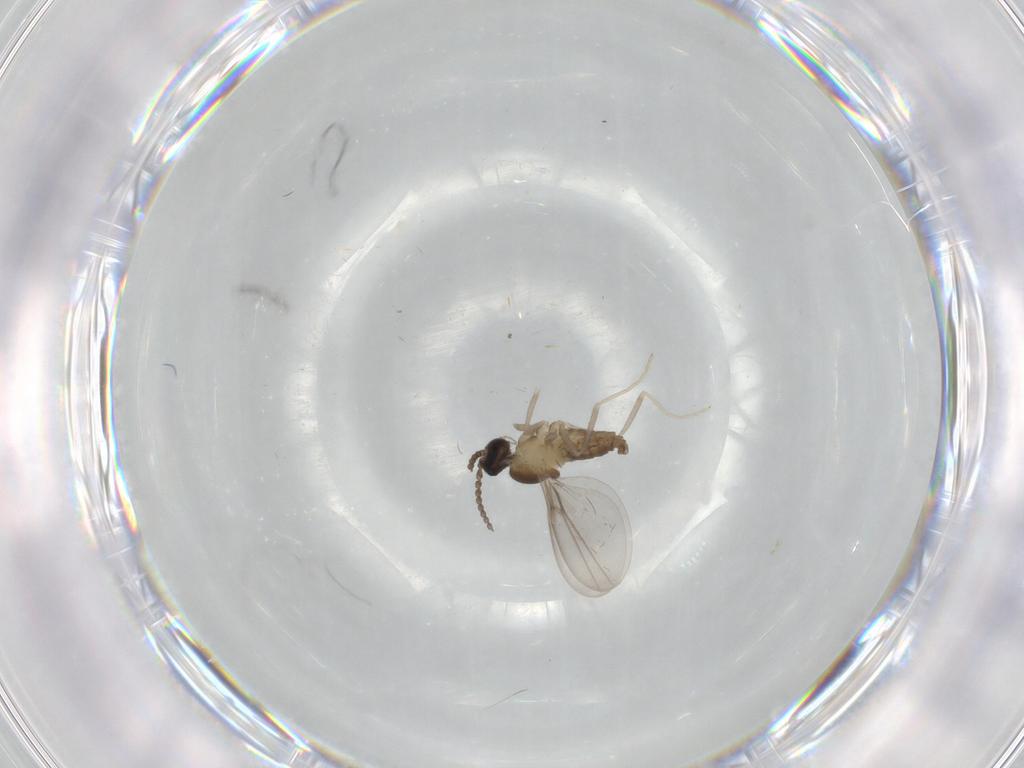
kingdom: Animalia
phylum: Arthropoda
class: Insecta
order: Diptera
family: Cecidomyiidae
